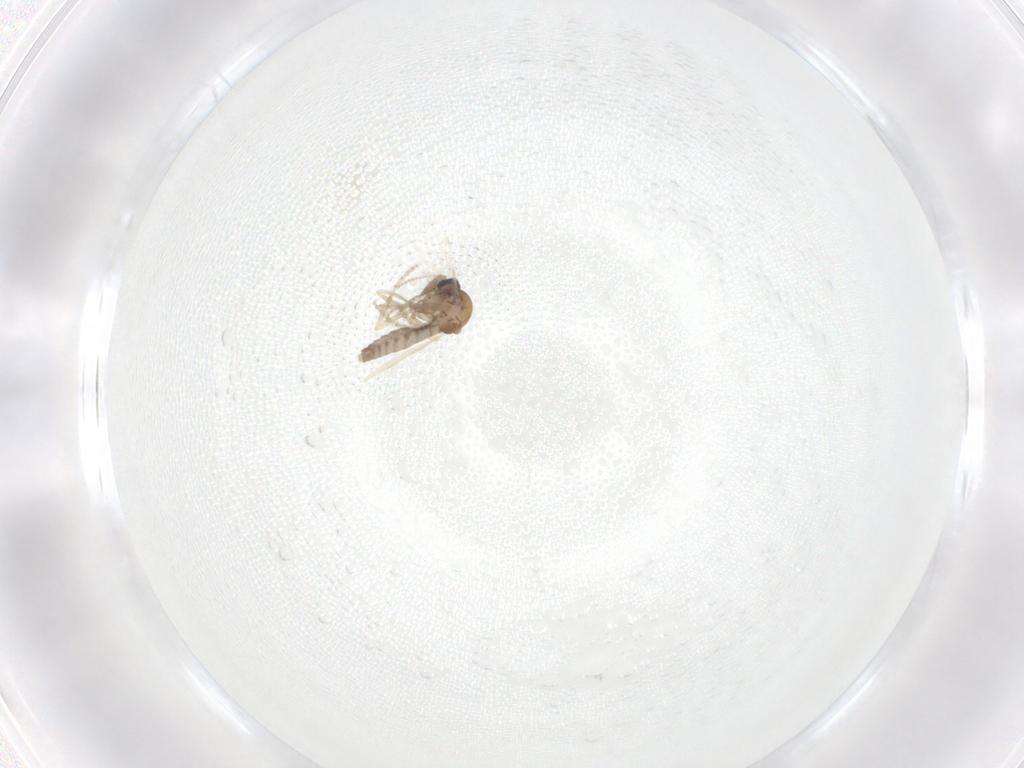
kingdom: Animalia
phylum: Arthropoda
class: Insecta
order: Diptera
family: Ceratopogonidae
